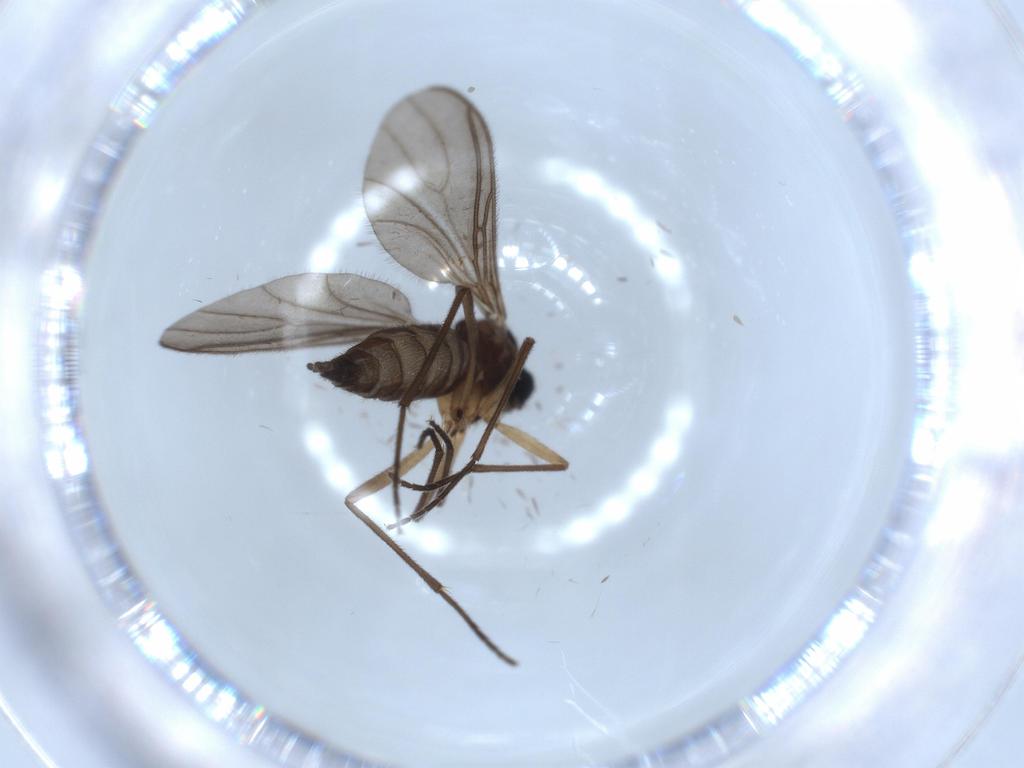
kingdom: Animalia
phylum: Arthropoda
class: Insecta
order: Diptera
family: Sciaridae
